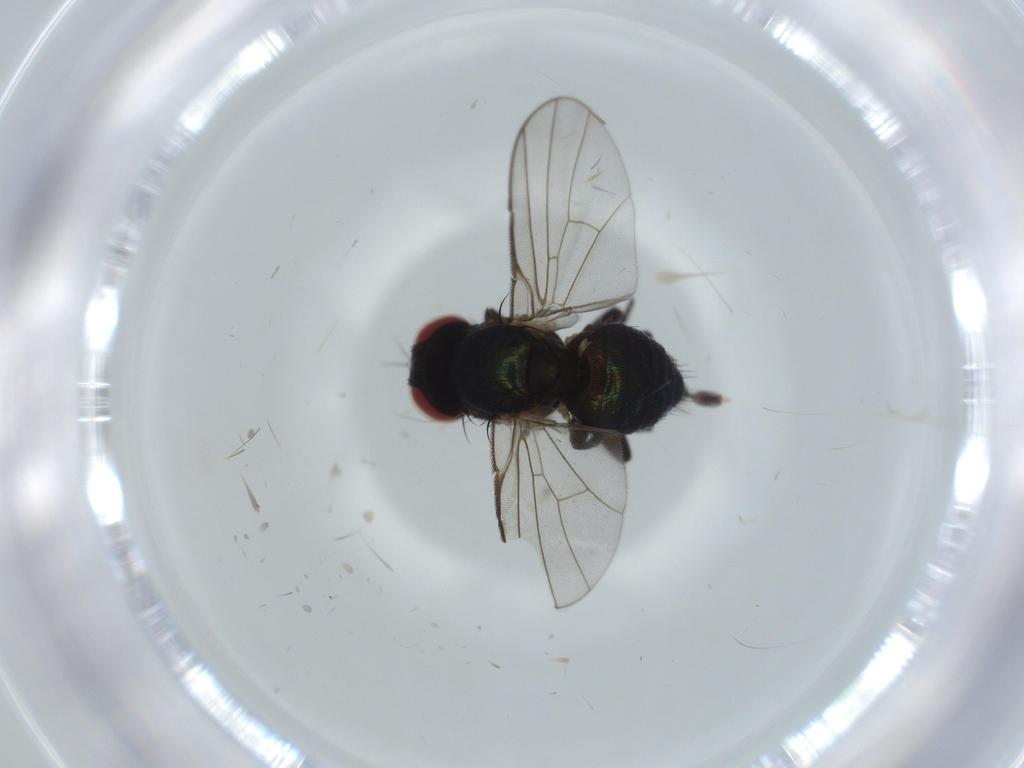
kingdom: Animalia
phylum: Arthropoda
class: Insecta
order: Diptera
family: Agromyzidae
